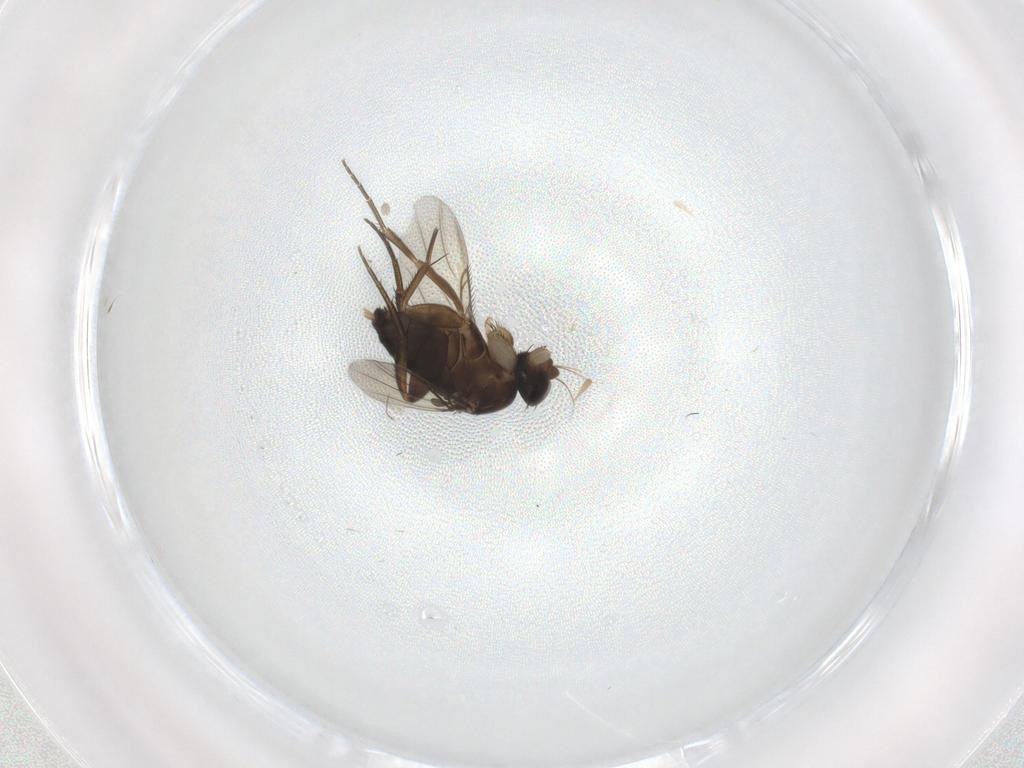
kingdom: Animalia
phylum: Arthropoda
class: Insecta
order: Diptera
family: Phoridae
